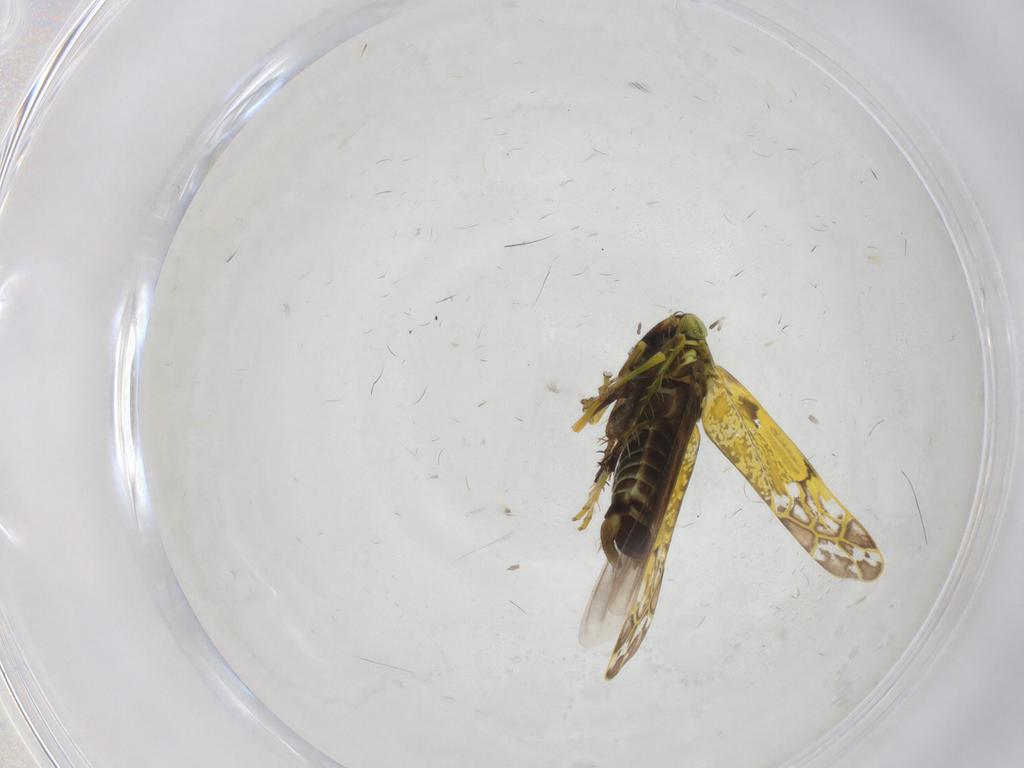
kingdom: Animalia
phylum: Arthropoda
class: Insecta
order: Hemiptera
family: Cicadellidae
